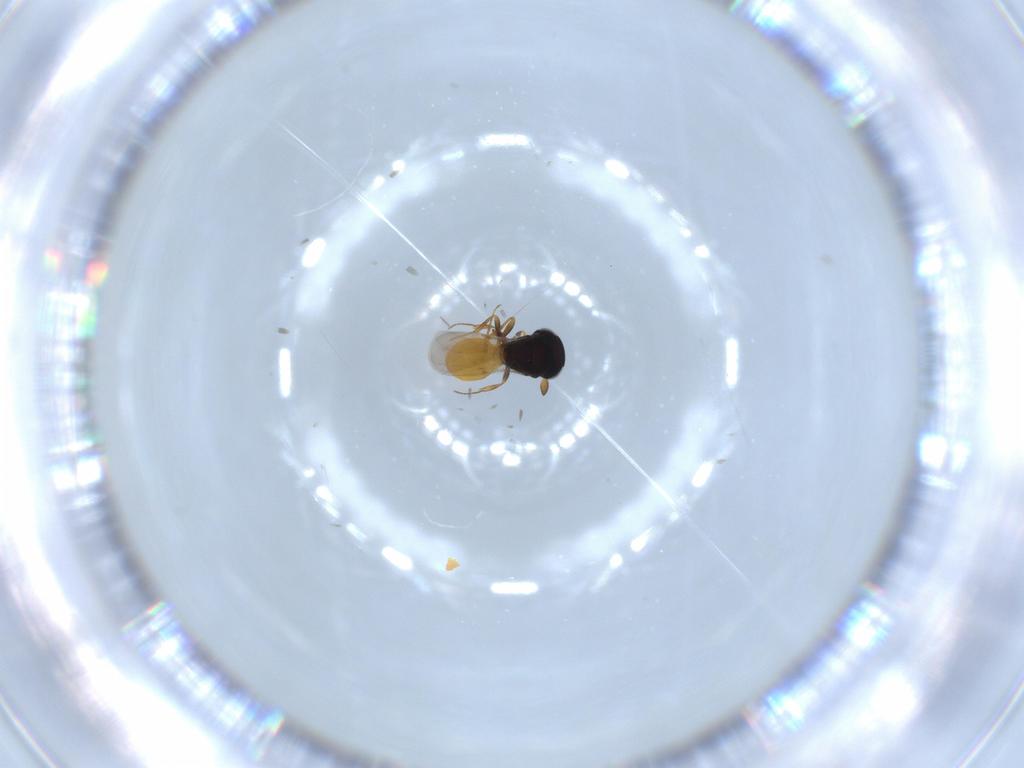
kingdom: Animalia
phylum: Arthropoda
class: Insecta
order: Hymenoptera
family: Scelionidae
